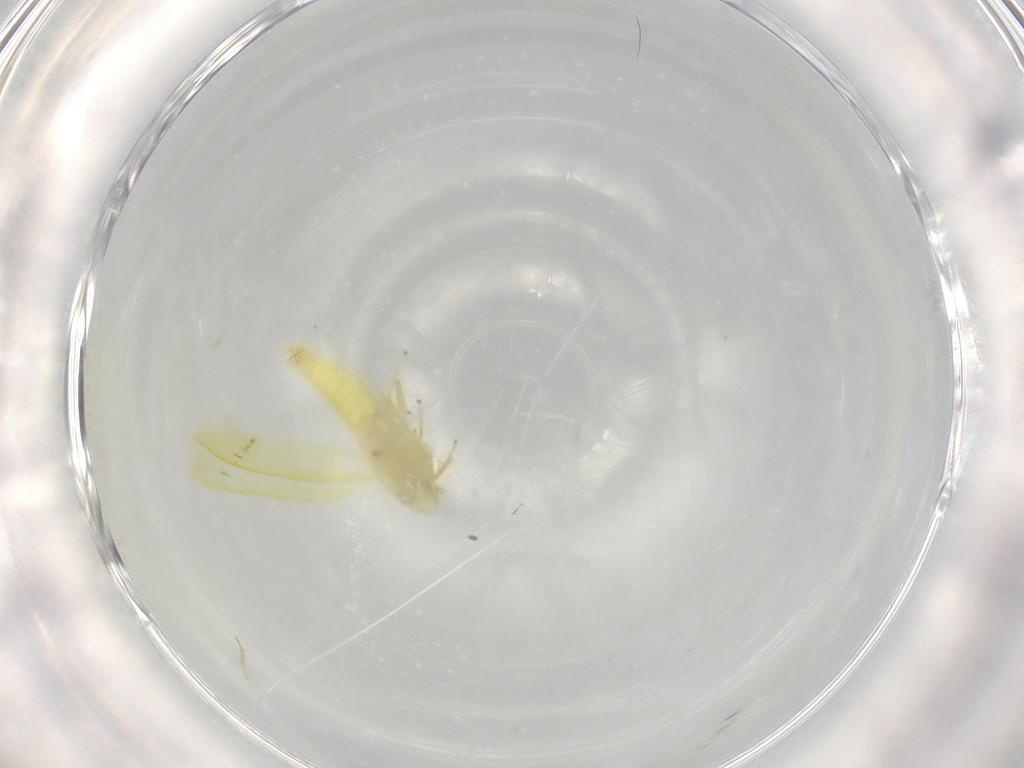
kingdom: Animalia
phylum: Arthropoda
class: Insecta
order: Hemiptera
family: Cicadellidae
